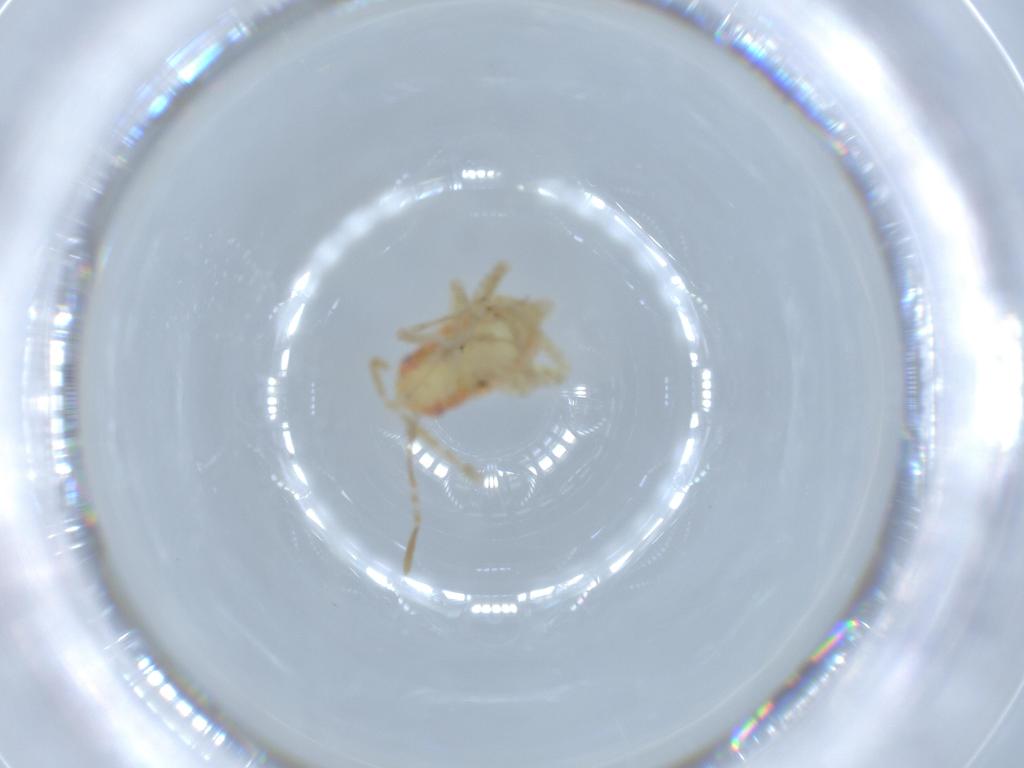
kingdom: Animalia
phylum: Arthropoda
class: Insecta
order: Hemiptera
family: Miridae
